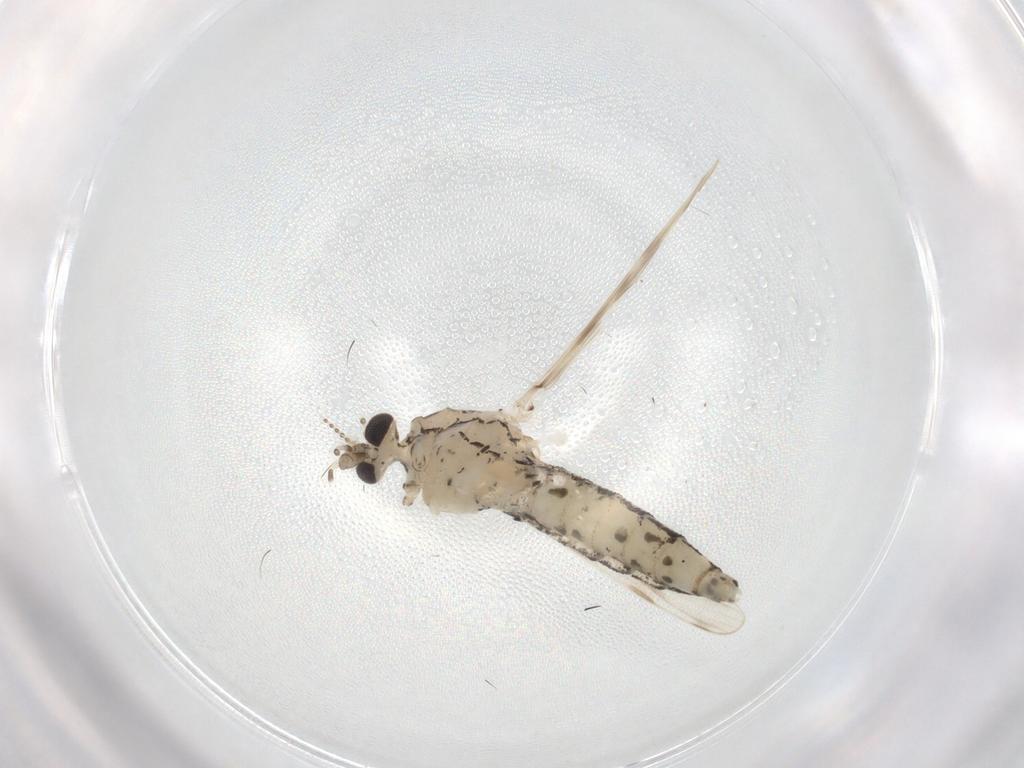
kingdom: Animalia
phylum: Arthropoda
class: Insecta
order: Diptera
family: Pipunculidae
